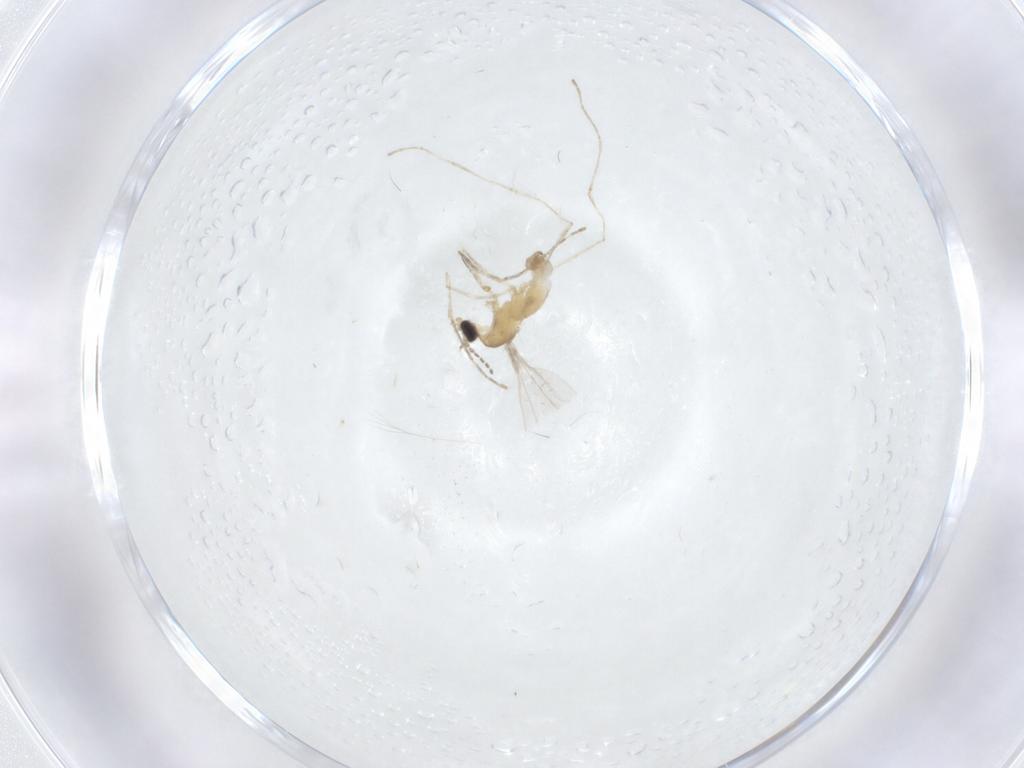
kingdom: Animalia
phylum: Arthropoda
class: Insecta
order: Diptera
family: Cecidomyiidae
